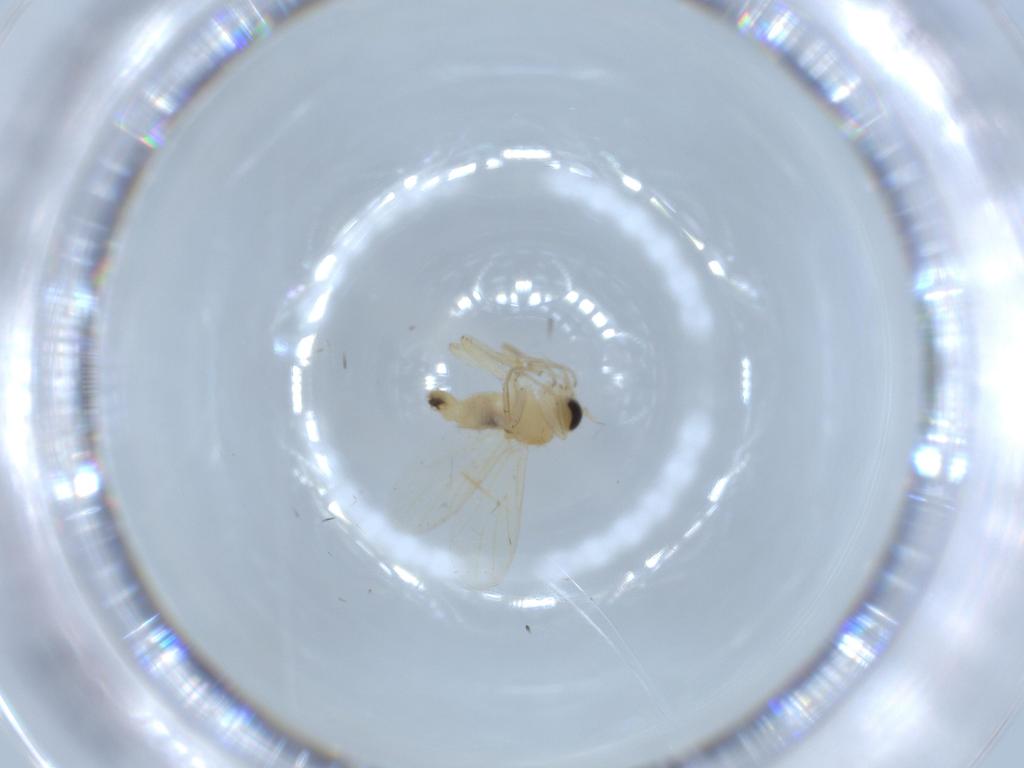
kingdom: Animalia
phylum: Arthropoda
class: Insecta
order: Diptera
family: Hybotidae
